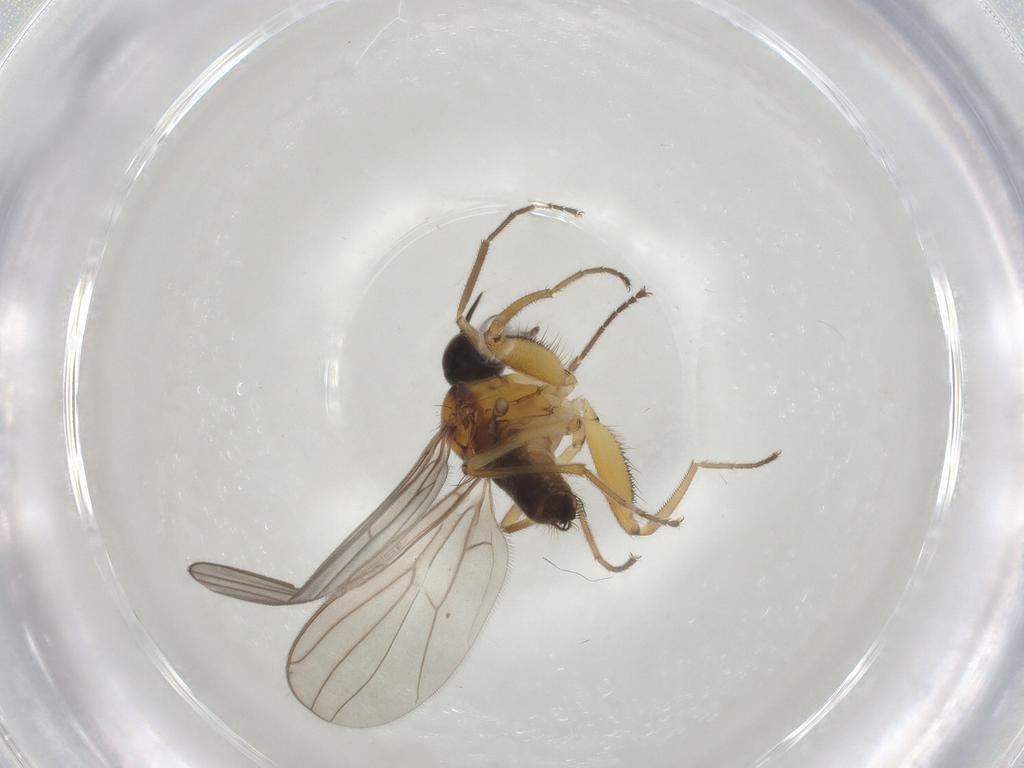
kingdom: Animalia
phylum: Arthropoda
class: Insecta
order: Diptera
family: Hybotidae
